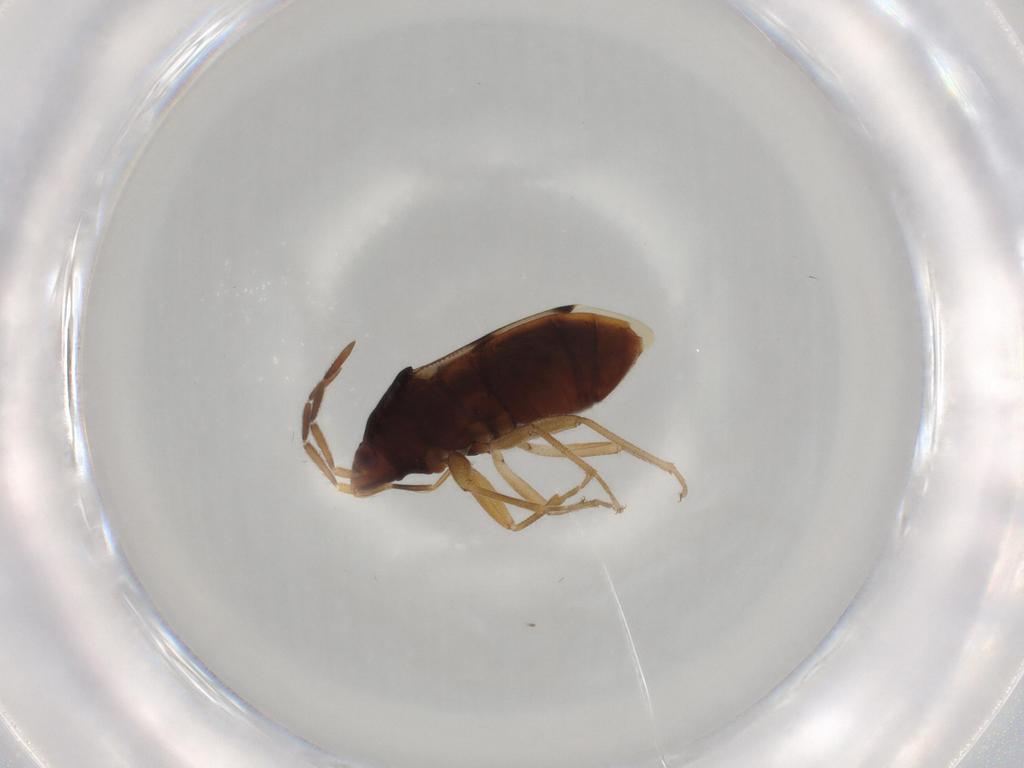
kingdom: Animalia
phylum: Arthropoda
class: Insecta
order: Hemiptera
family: Rhyparochromidae
